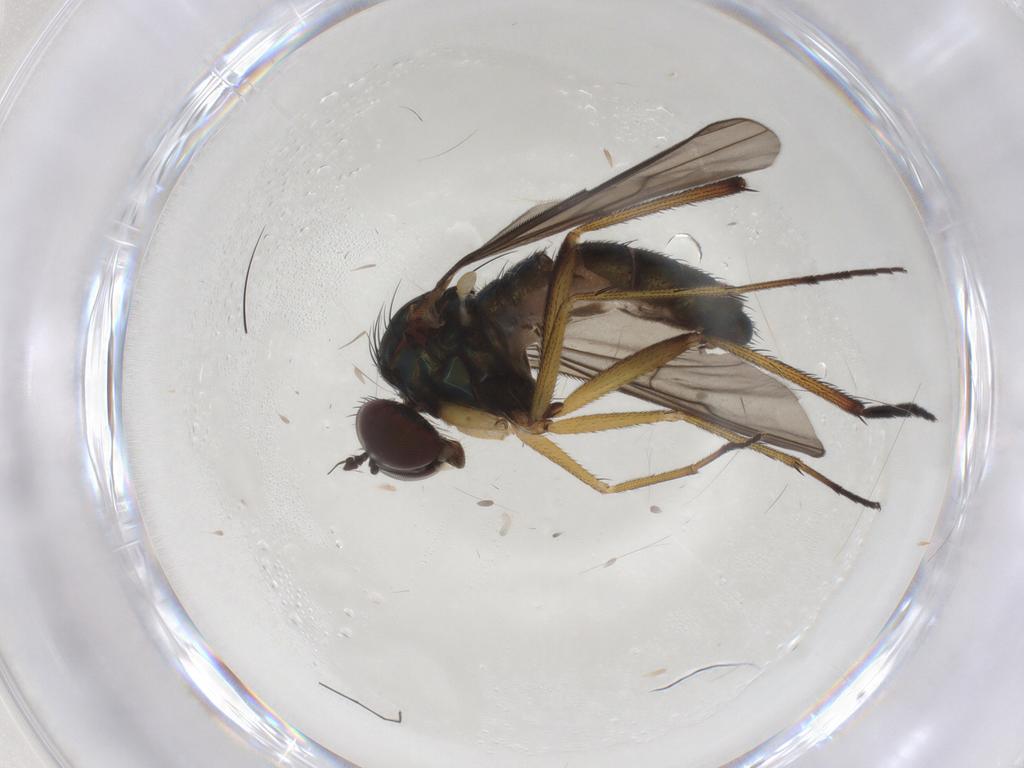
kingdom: Animalia
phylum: Arthropoda
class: Insecta
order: Diptera
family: Dolichopodidae
